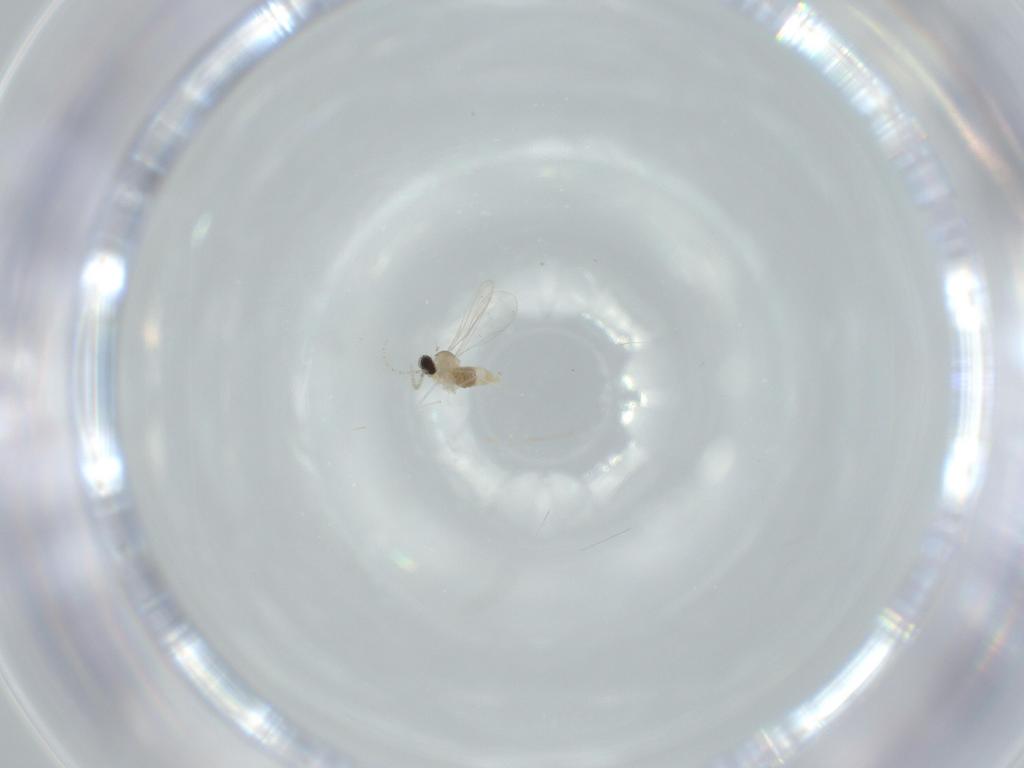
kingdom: Animalia
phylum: Arthropoda
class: Insecta
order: Diptera
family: Cecidomyiidae
